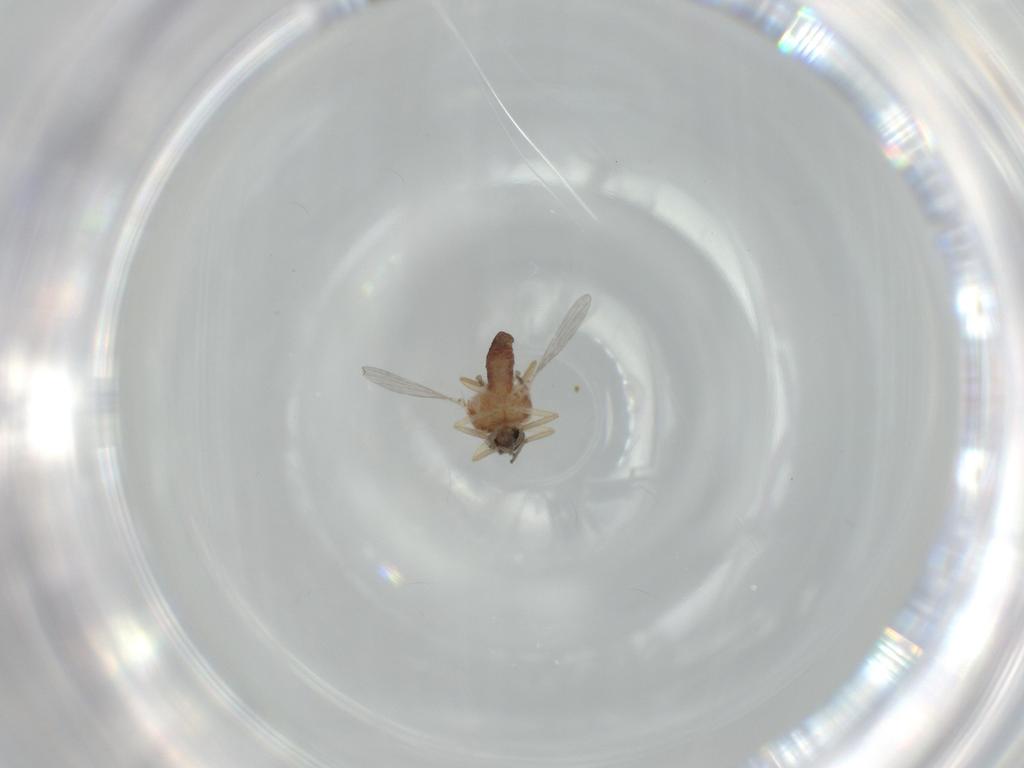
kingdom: Animalia
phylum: Arthropoda
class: Insecta
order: Diptera
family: Ceratopogonidae
